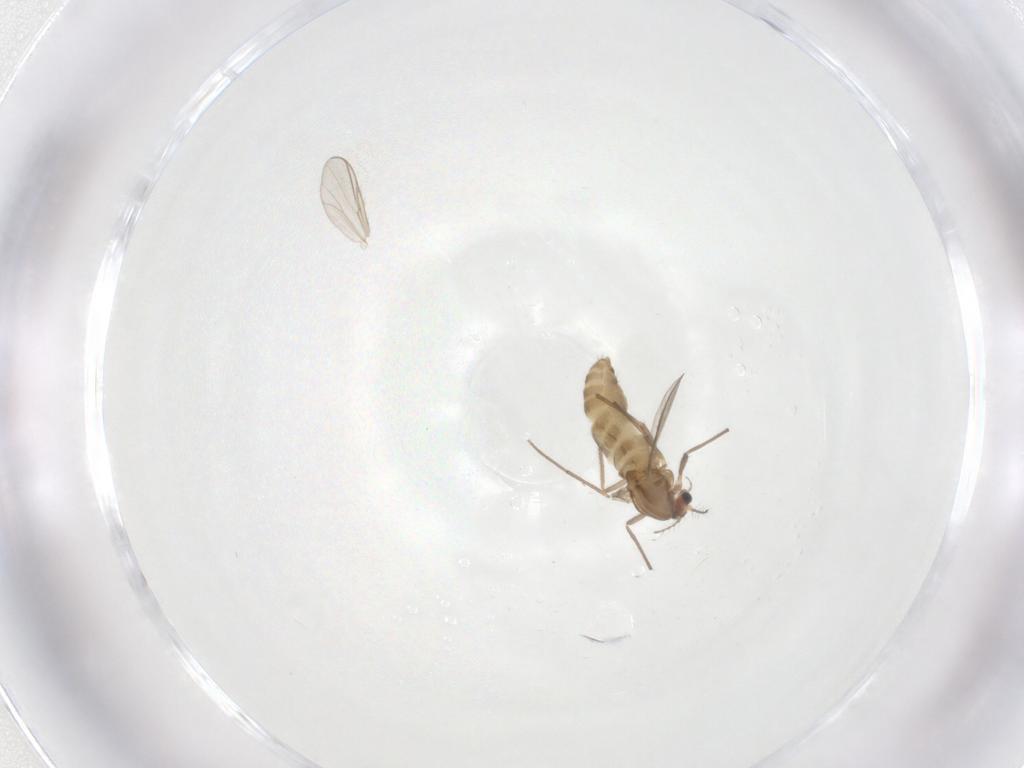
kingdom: Animalia
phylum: Arthropoda
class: Insecta
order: Diptera
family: Chironomidae
